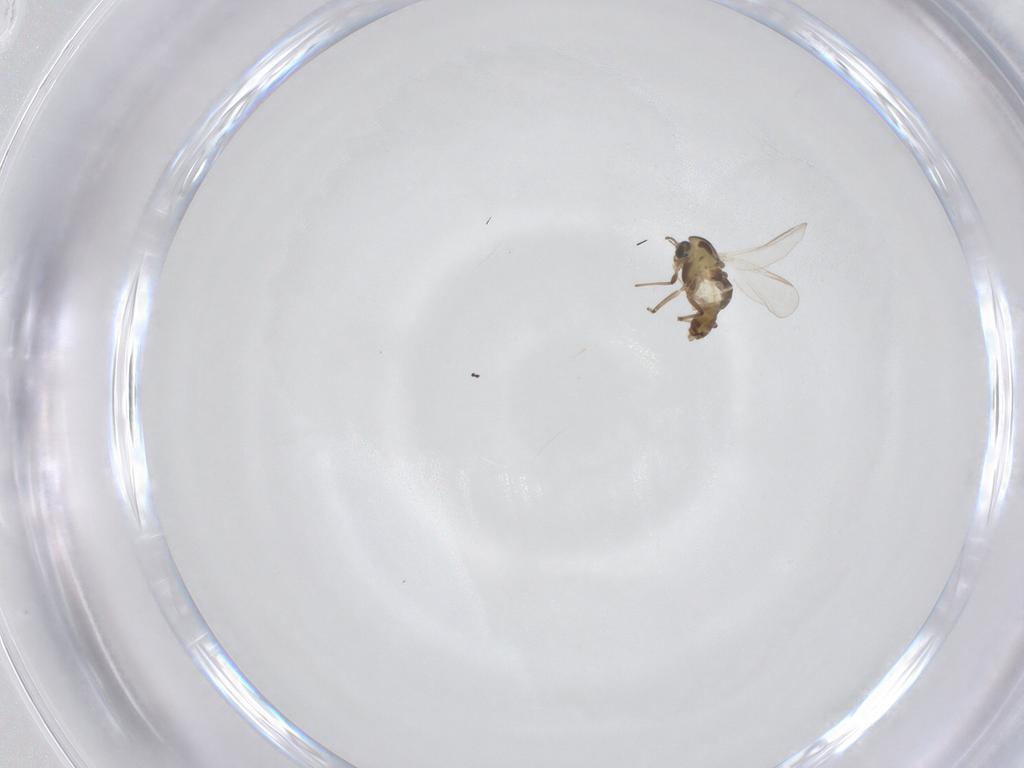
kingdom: Animalia
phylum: Arthropoda
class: Insecta
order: Diptera
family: Chironomidae
